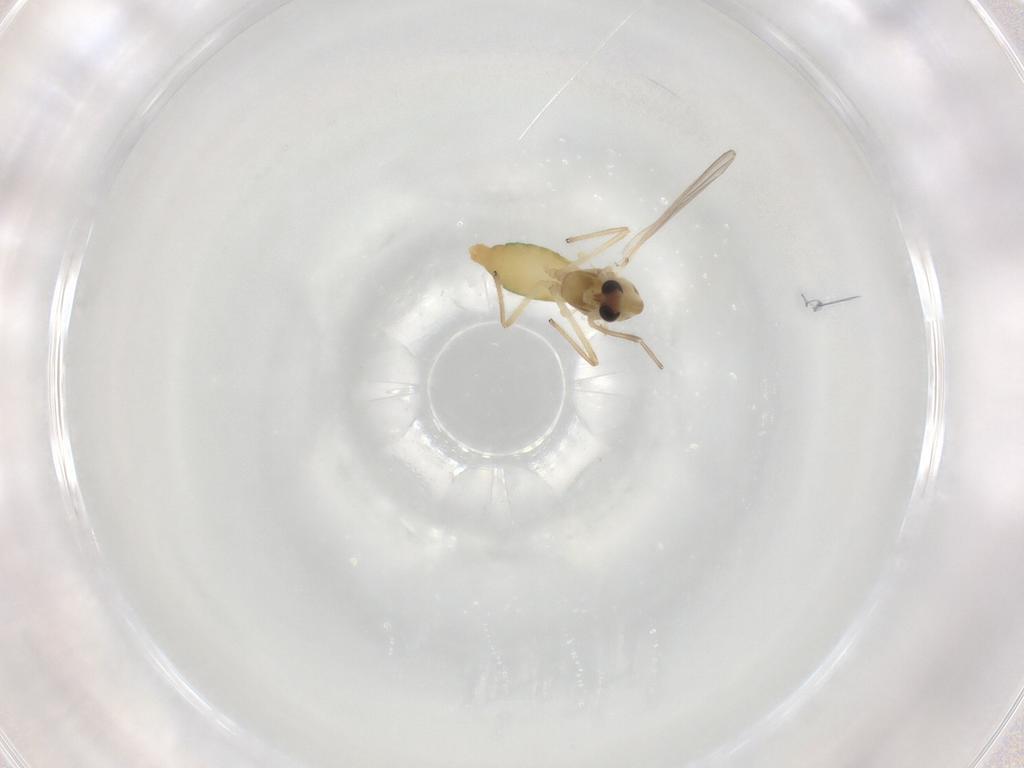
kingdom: Animalia
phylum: Arthropoda
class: Insecta
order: Diptera
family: Chironomidae
